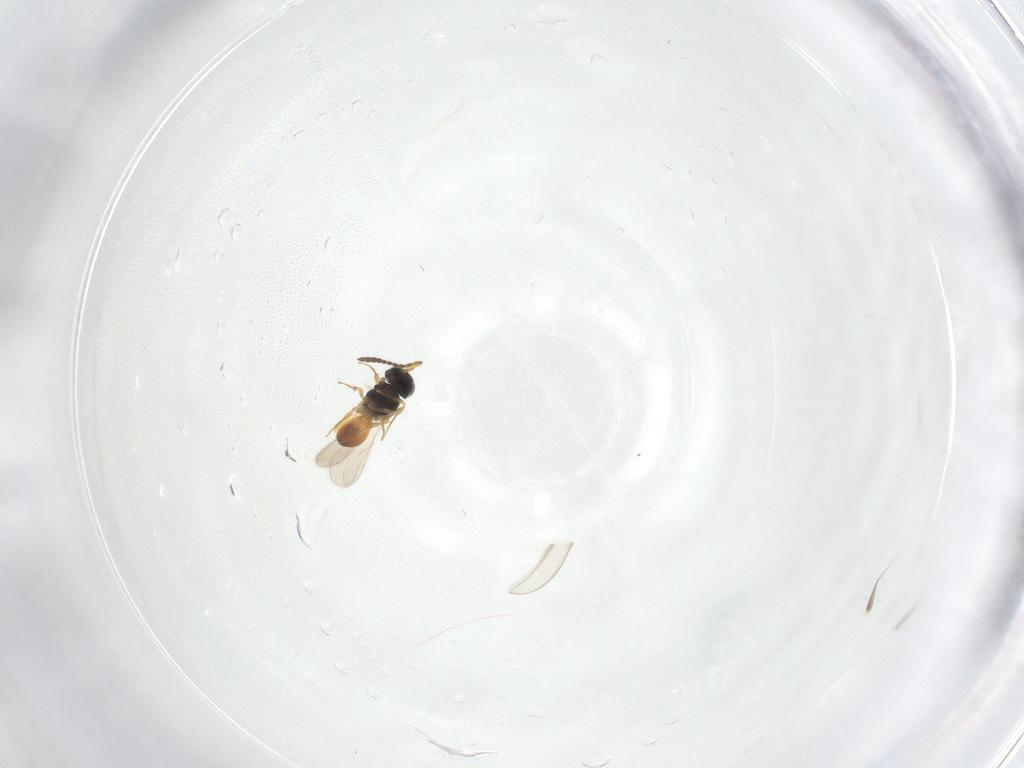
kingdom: Animalia
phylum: Arthropoda
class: Insecta
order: Hymenoptera
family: Scelionidae
